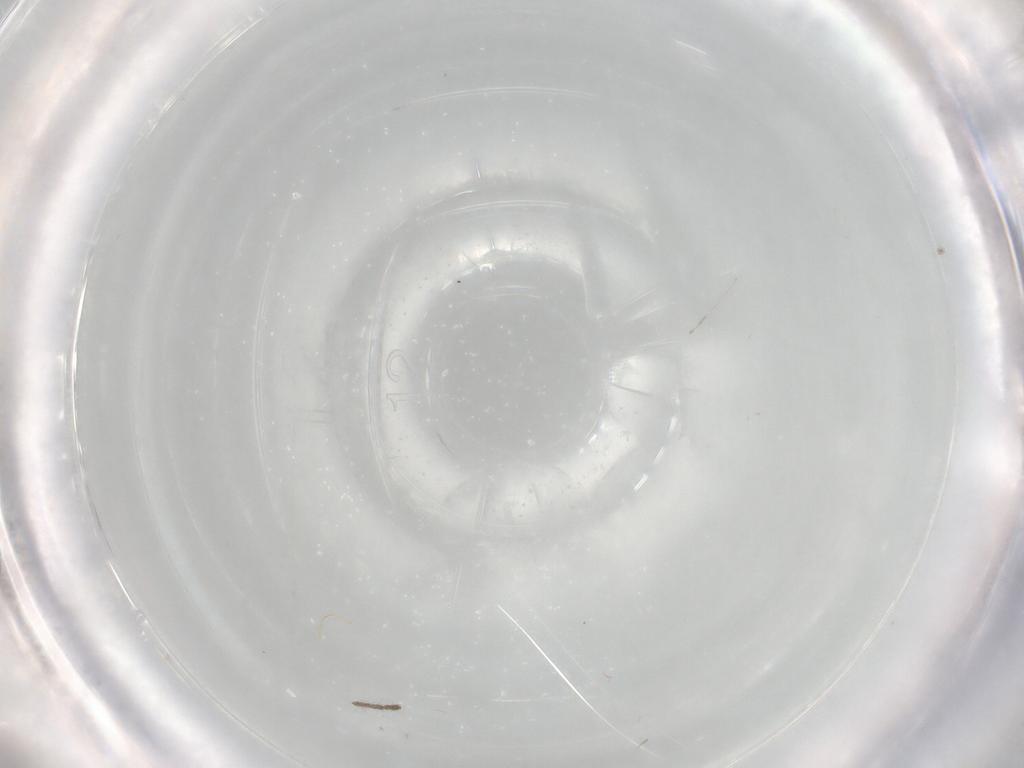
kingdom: Animalia
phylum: Arthropoda
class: Insecta
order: Diptera
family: Limoniidae
